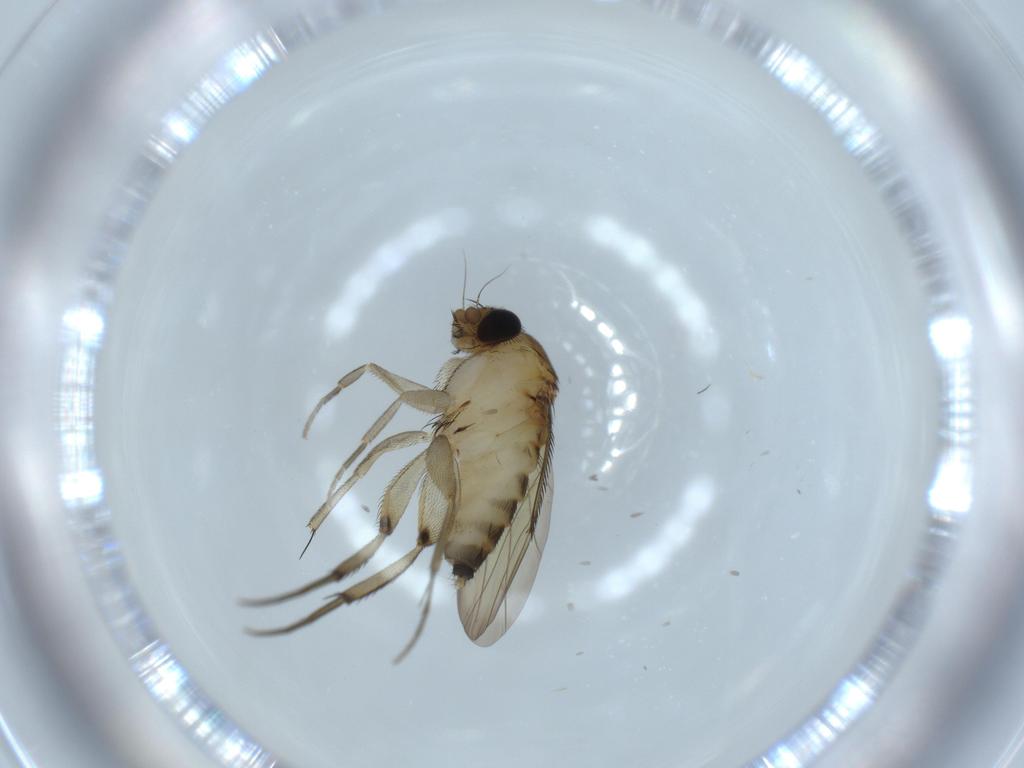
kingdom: Animalia
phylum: Arthropoda
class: Insecta
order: Diptera
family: Phoridae
